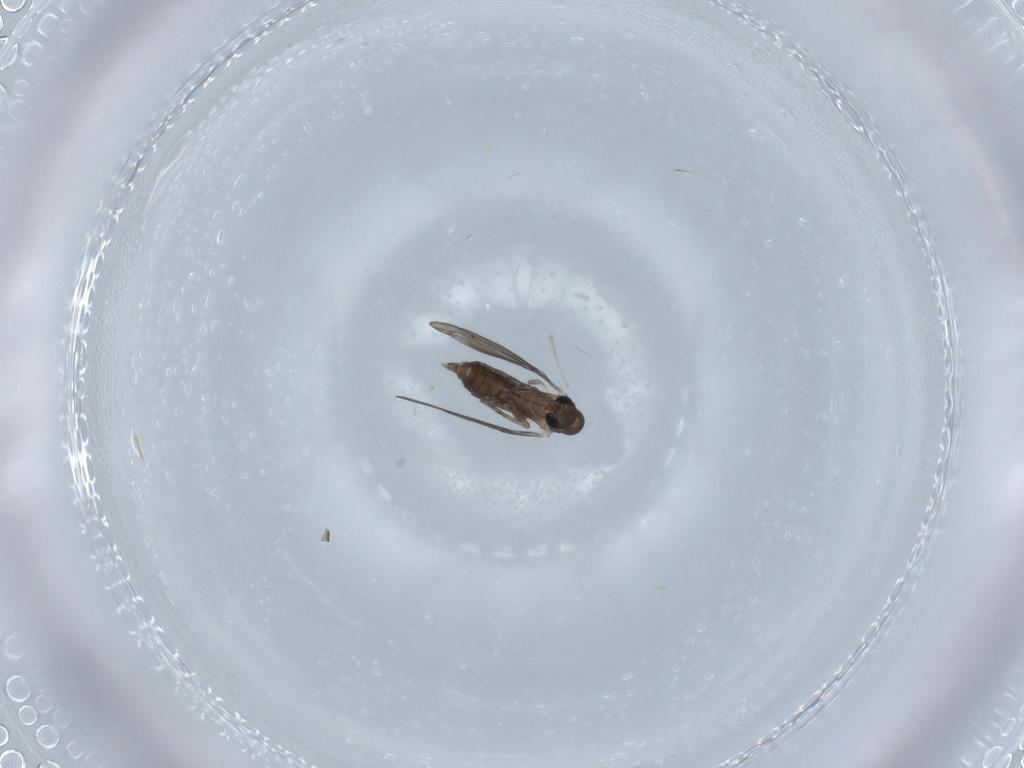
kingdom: Animalia
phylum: Arthropoda
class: Insecta
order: Diptera
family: Psychodidae
